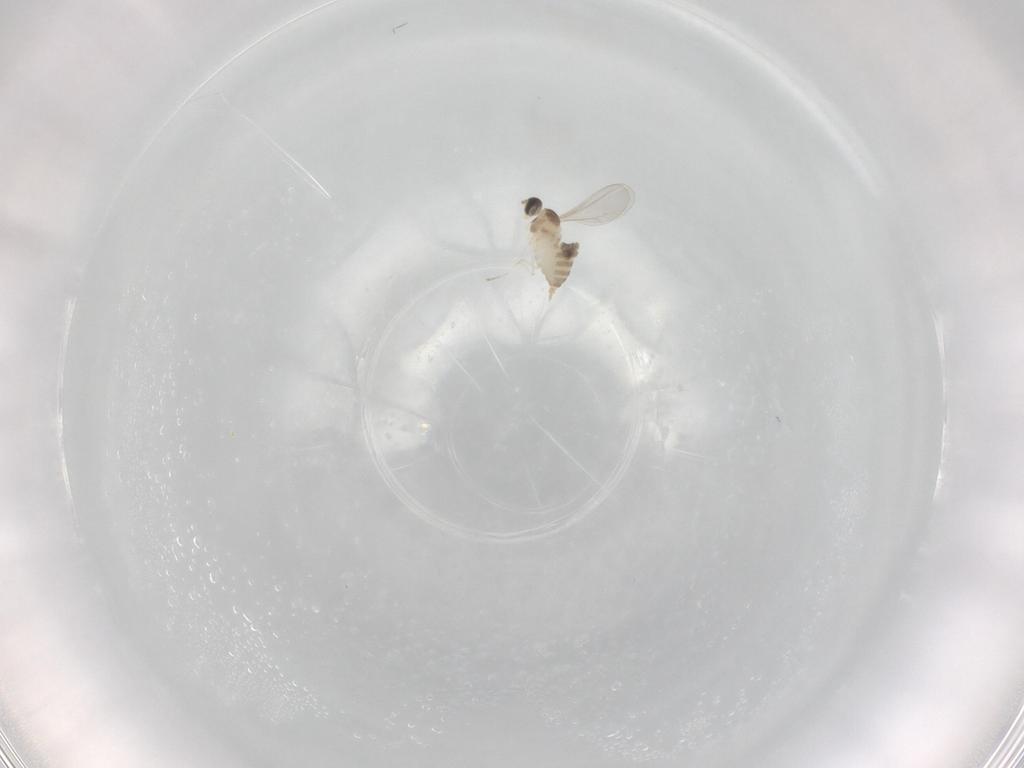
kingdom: Animalia
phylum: Arthropoda
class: Insecta
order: Diptera
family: Cecidomyiidae
